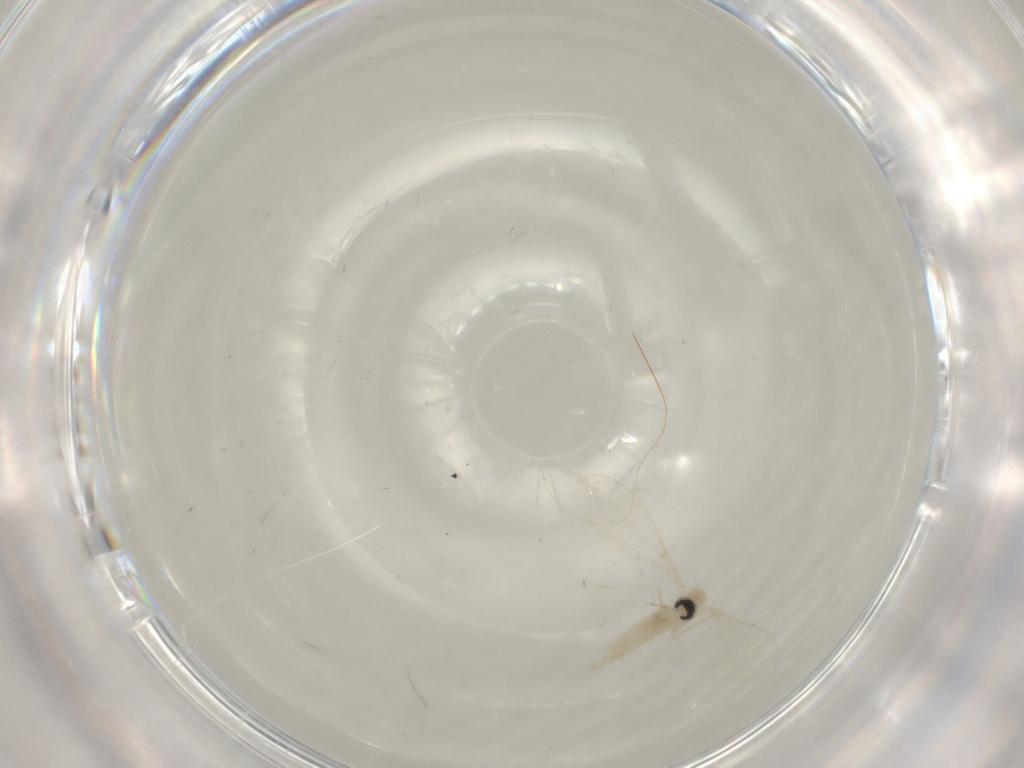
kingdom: Animalia
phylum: Arthropoda
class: Insecta
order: Diptera
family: Cecidomyiidae
